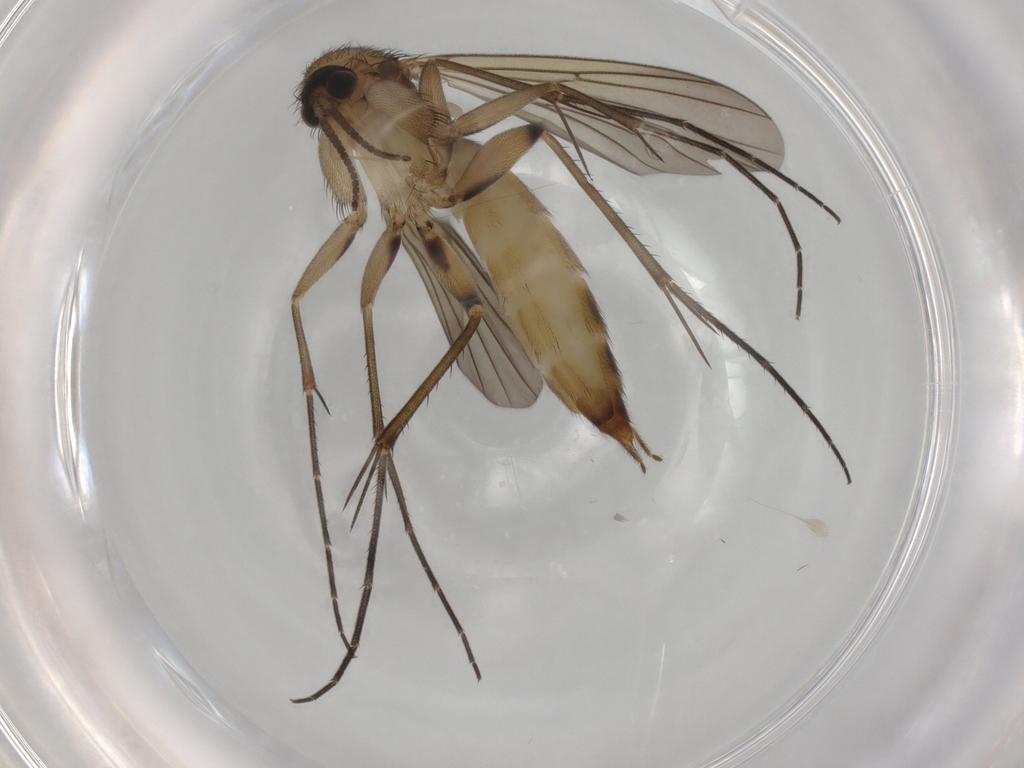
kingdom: Animalia
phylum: Arthropoda
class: Insecta
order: Diptera
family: Mycetophilidae
